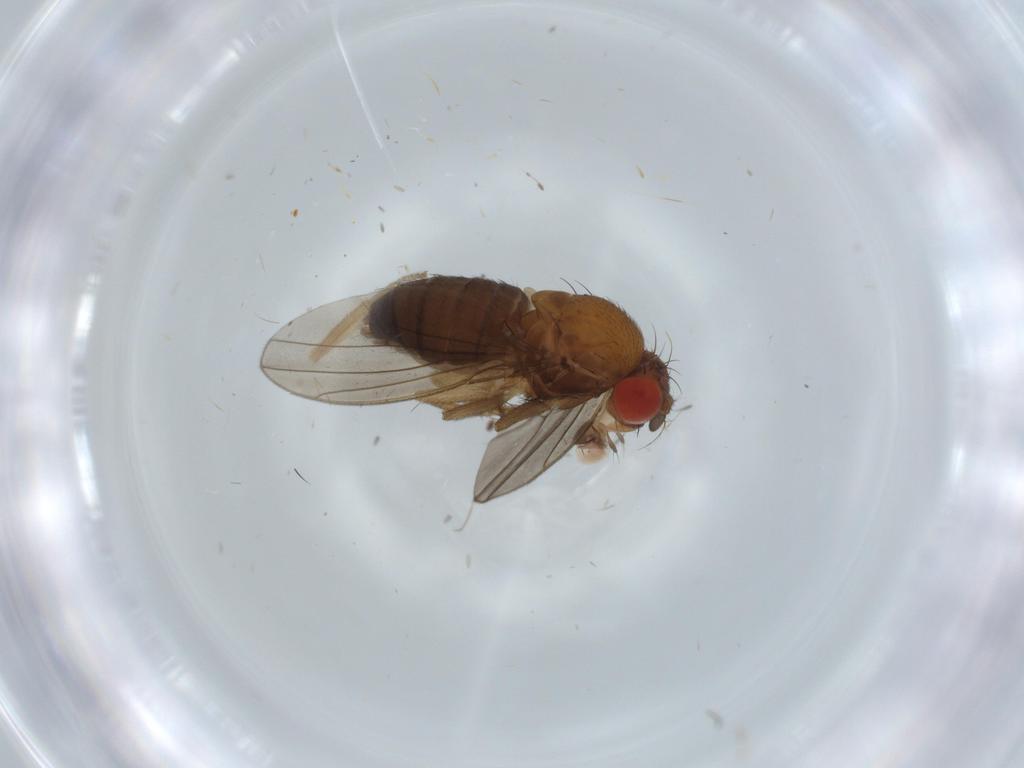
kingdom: Animalia
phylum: Arthropoda
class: Insecta
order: Diptera
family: Drosophilidae
